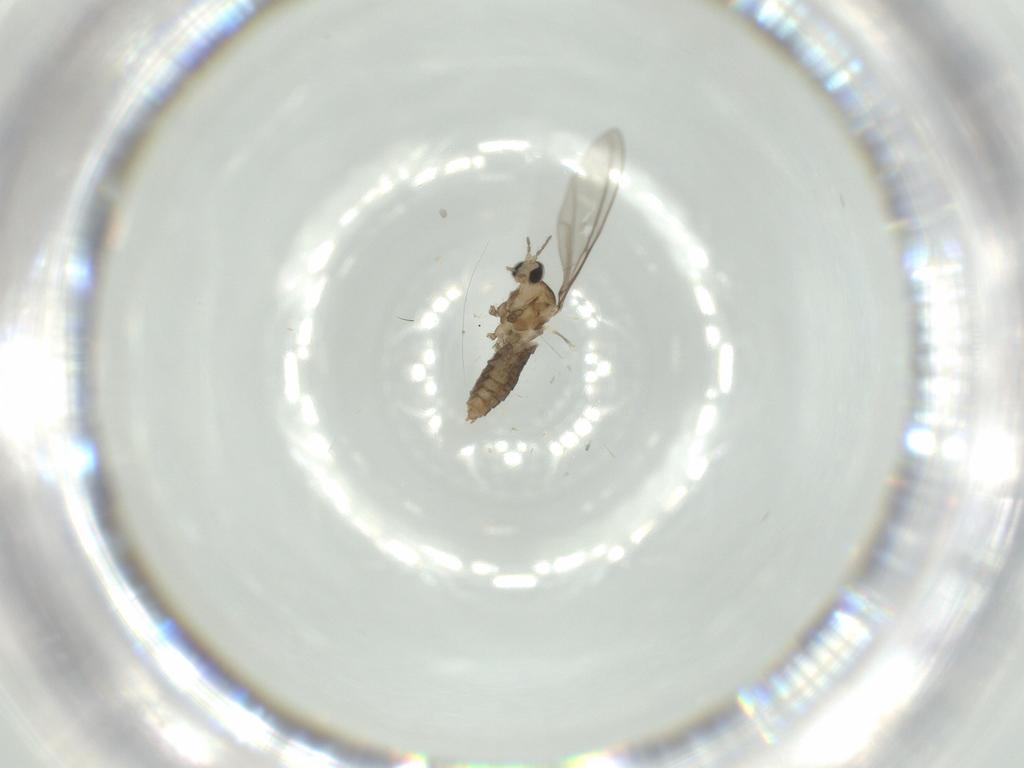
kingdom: Animalia
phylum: Arthropoda
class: Insecta
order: Diptera
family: Cecidomyiidae
